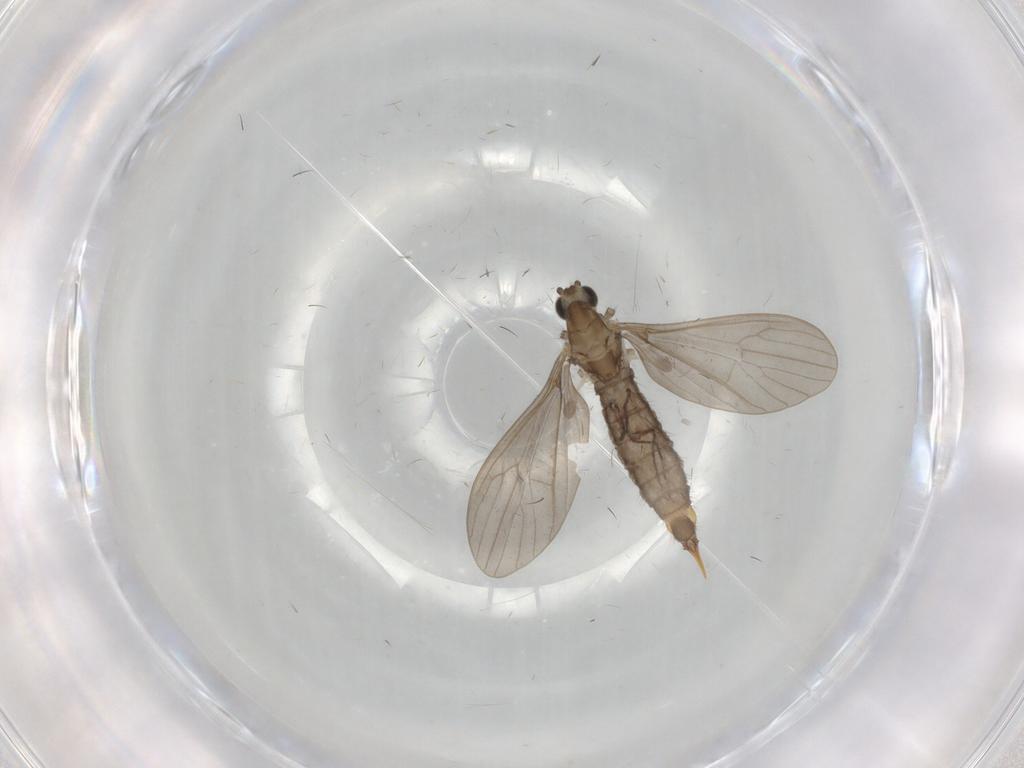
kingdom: Animalia
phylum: Arthropoda
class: Insecta
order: Diptera
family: Limoniidae
